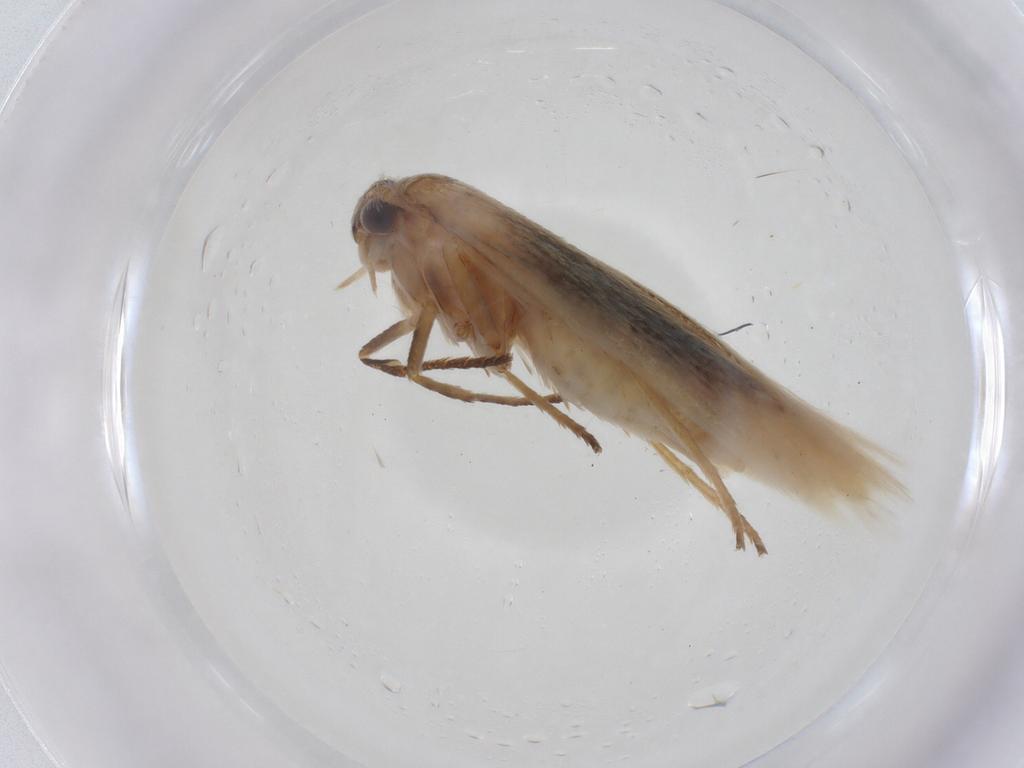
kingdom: Animalia
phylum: Arthropoda
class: Insecta
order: Lepidoptera
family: Scythrididae
